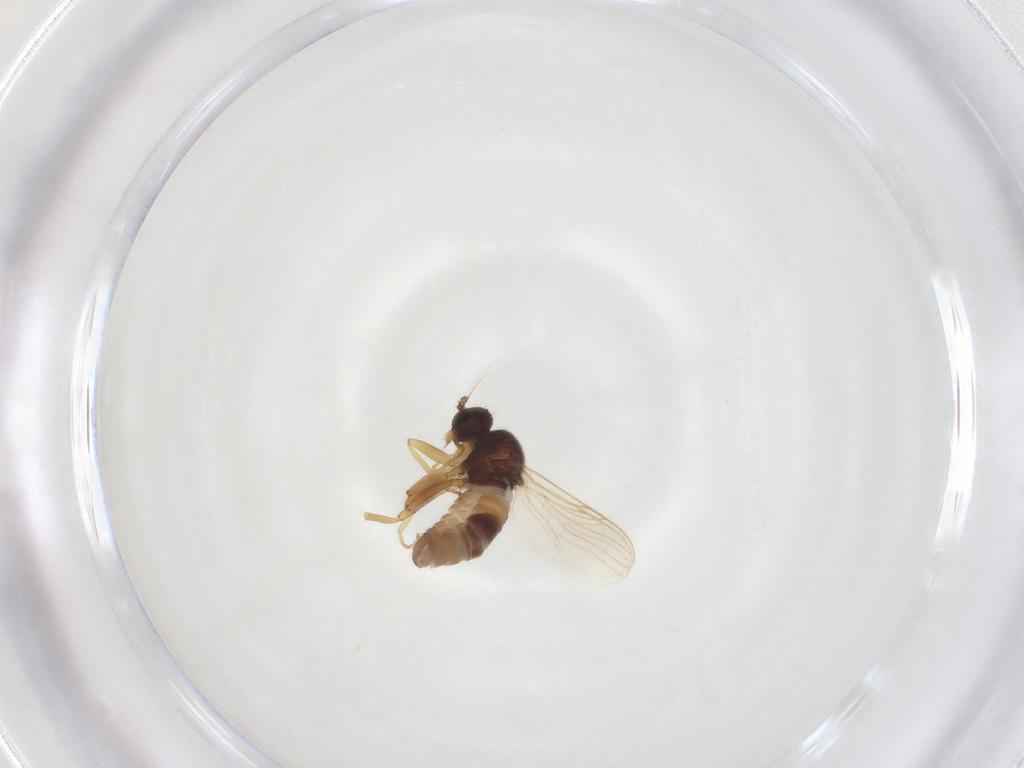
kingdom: Animalia
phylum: Arthropoda
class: Insecta
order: Diptera
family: Hybotidae
